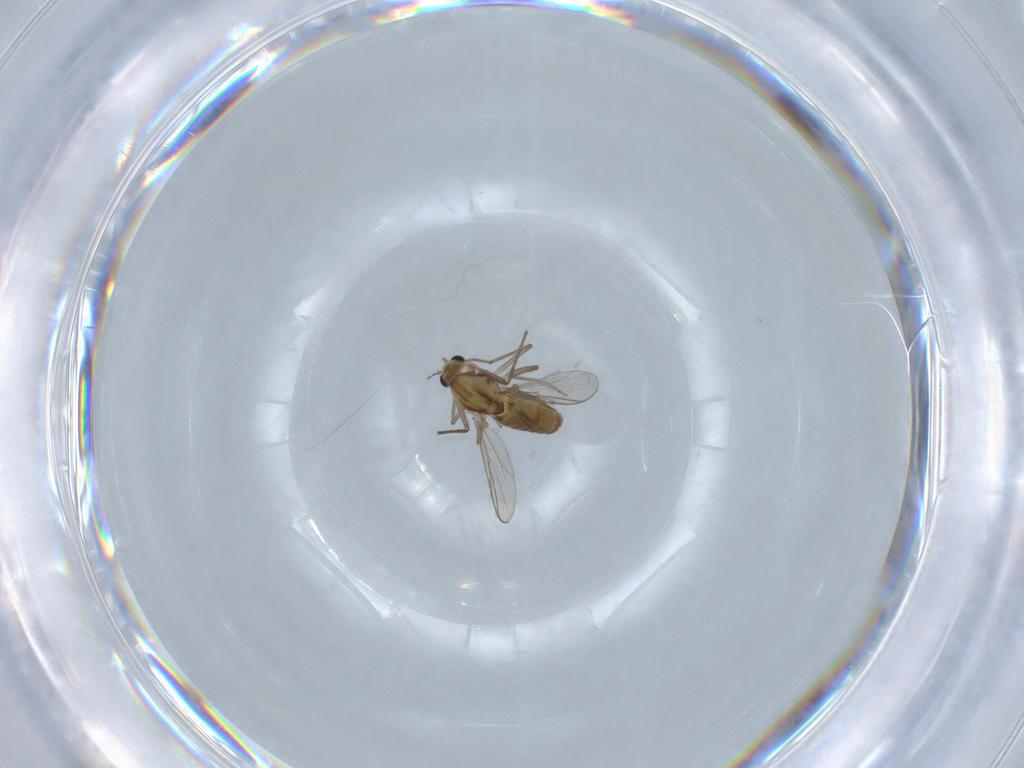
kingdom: Animalia
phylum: Arthropoda
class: Insecta
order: Diptera
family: Chironomidae
